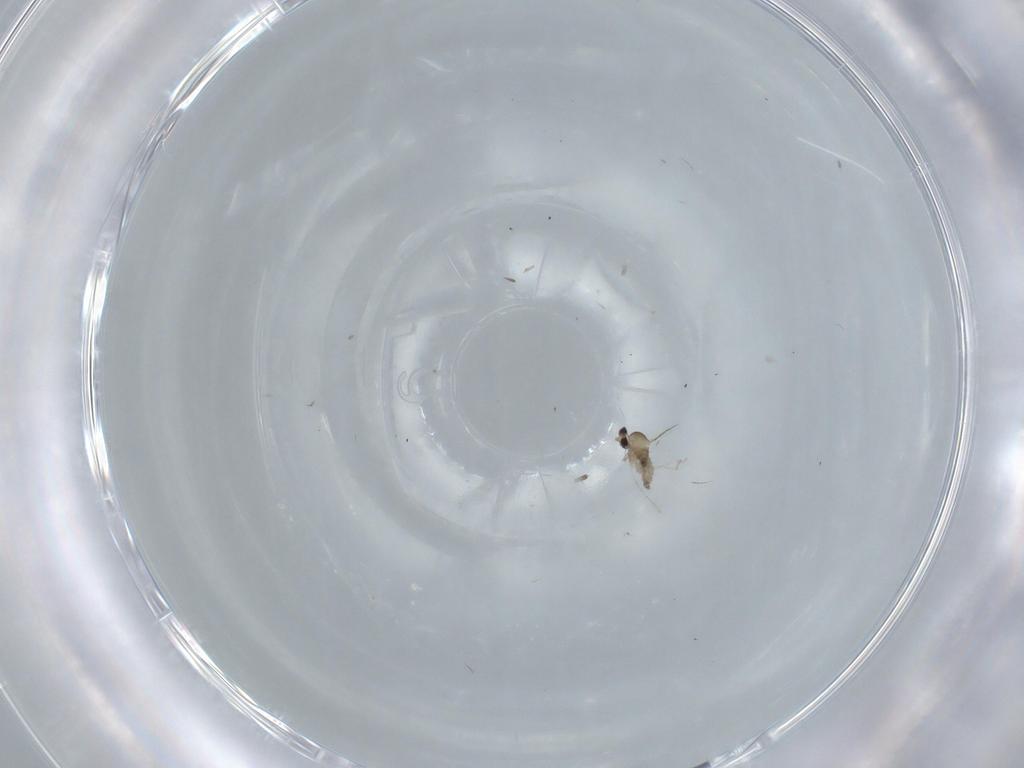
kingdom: Animalia
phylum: Arthropoda
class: Insecta
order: Diptera
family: Cecidomyiidae
